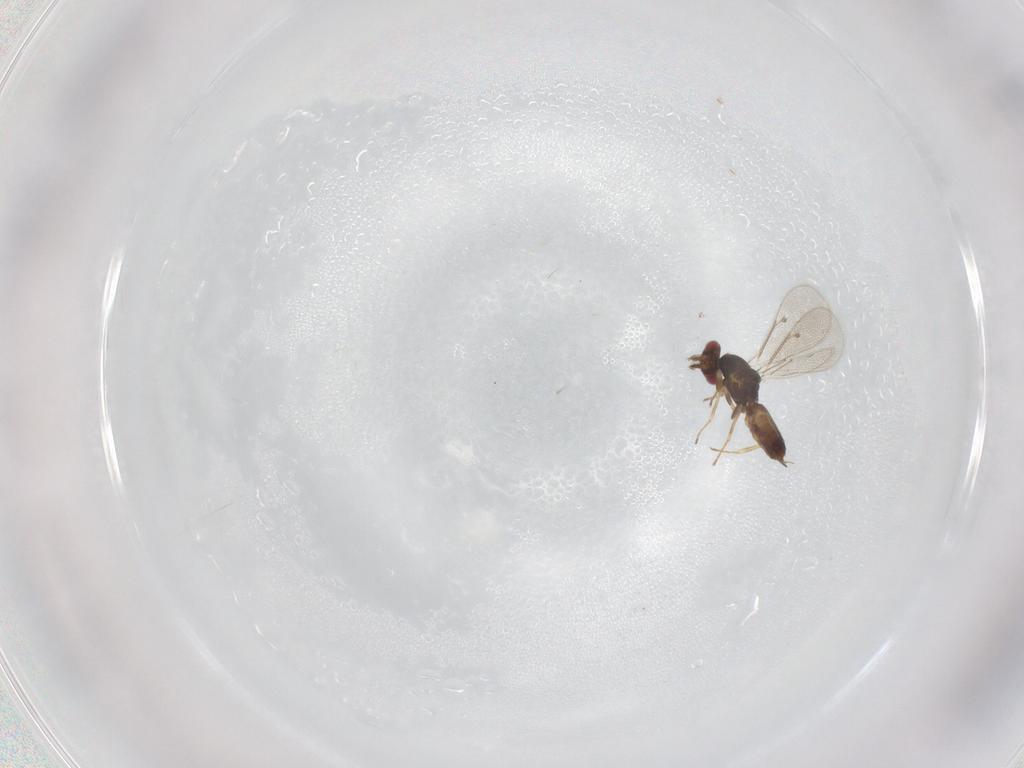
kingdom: Animalia
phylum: Arthropoda
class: Insecta
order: Hymenoptera
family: Eulophidae
